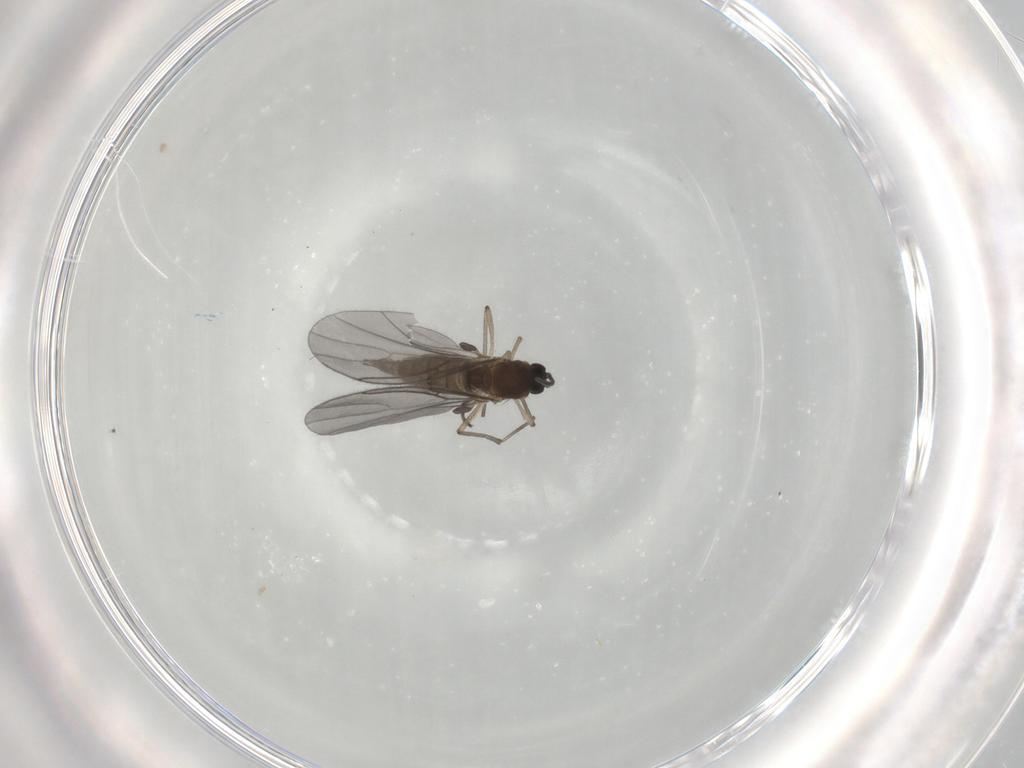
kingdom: Animalia
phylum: Arthropoda
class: Insecta
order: Diptera
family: Sciaridae
